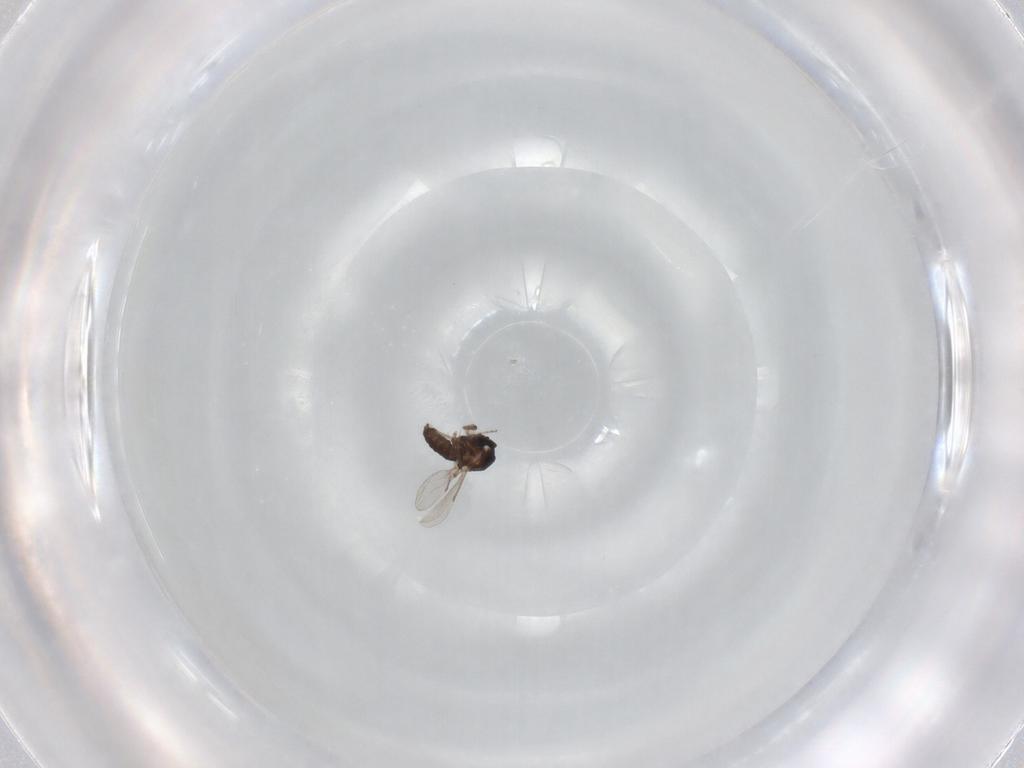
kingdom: Animalia
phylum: Arthropoda
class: Insecta
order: Diptera
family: Ceratopogonidae
